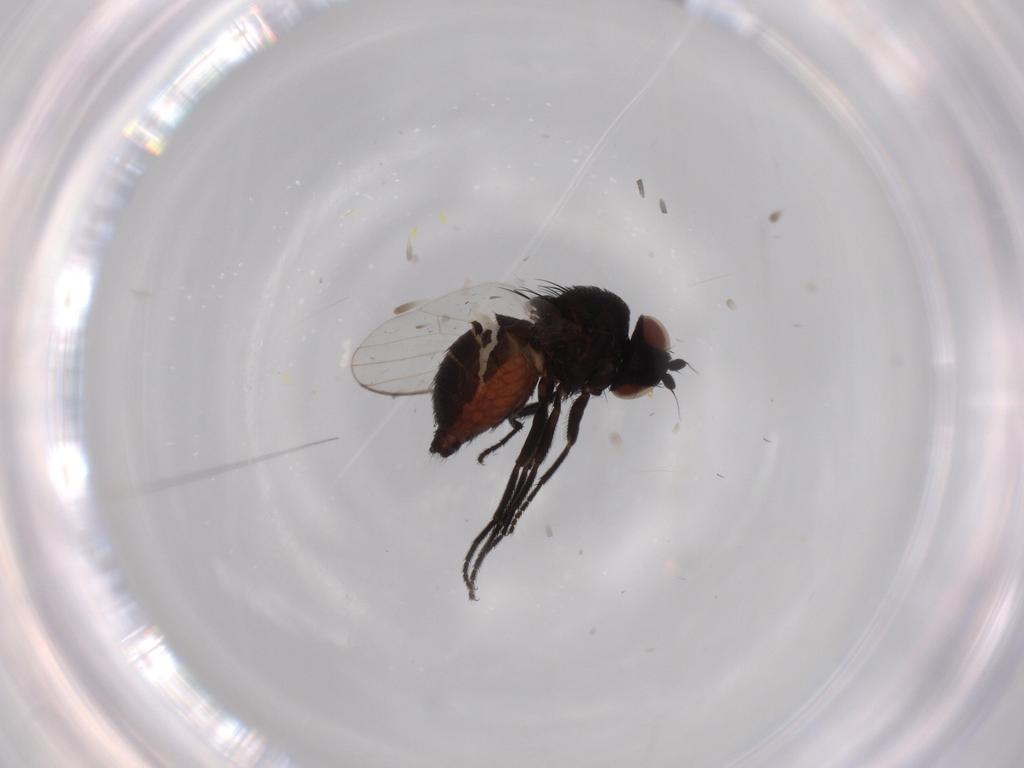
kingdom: Animalia
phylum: Arthropoda
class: Insecta
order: Diptera
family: Milichiidae
